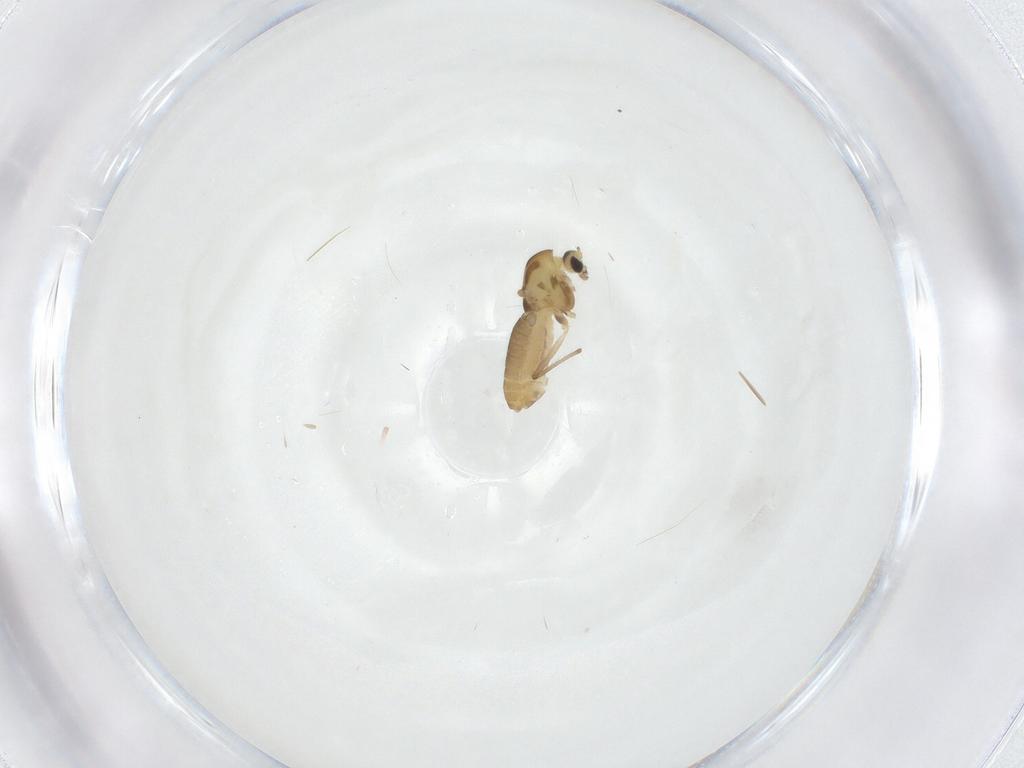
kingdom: Animalia
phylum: Arthropoda
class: Insecta
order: Diptera
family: Chironomidae
